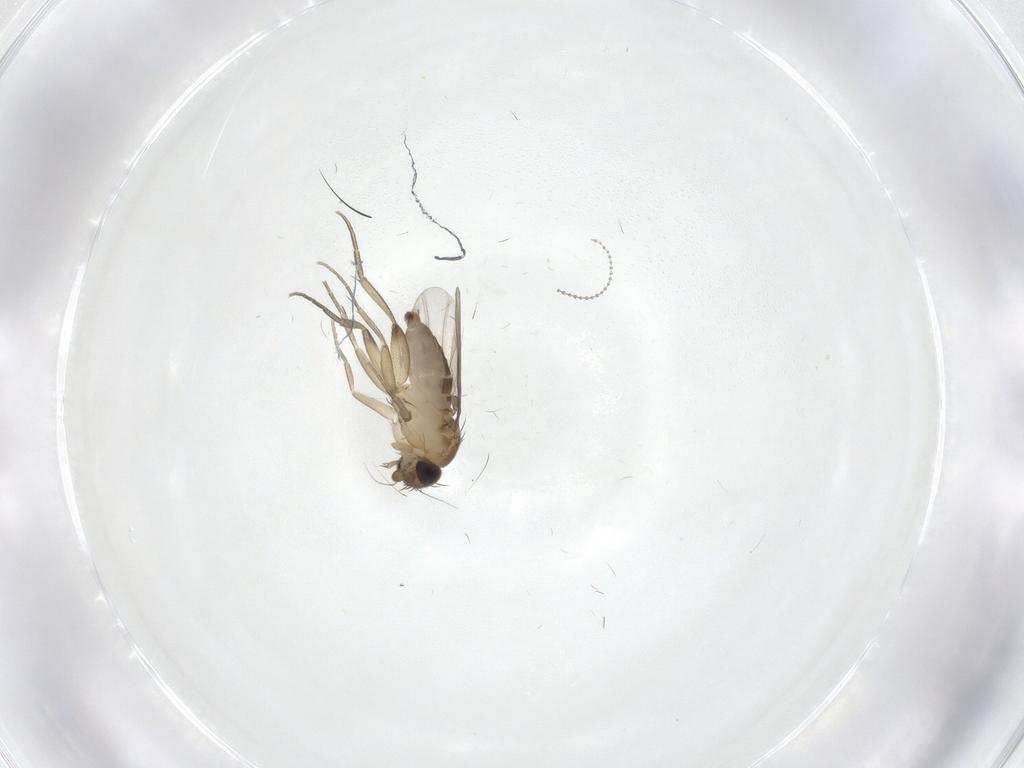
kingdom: Animalia
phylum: Arthropoda
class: Insecta
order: Diptera
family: Phoridae
